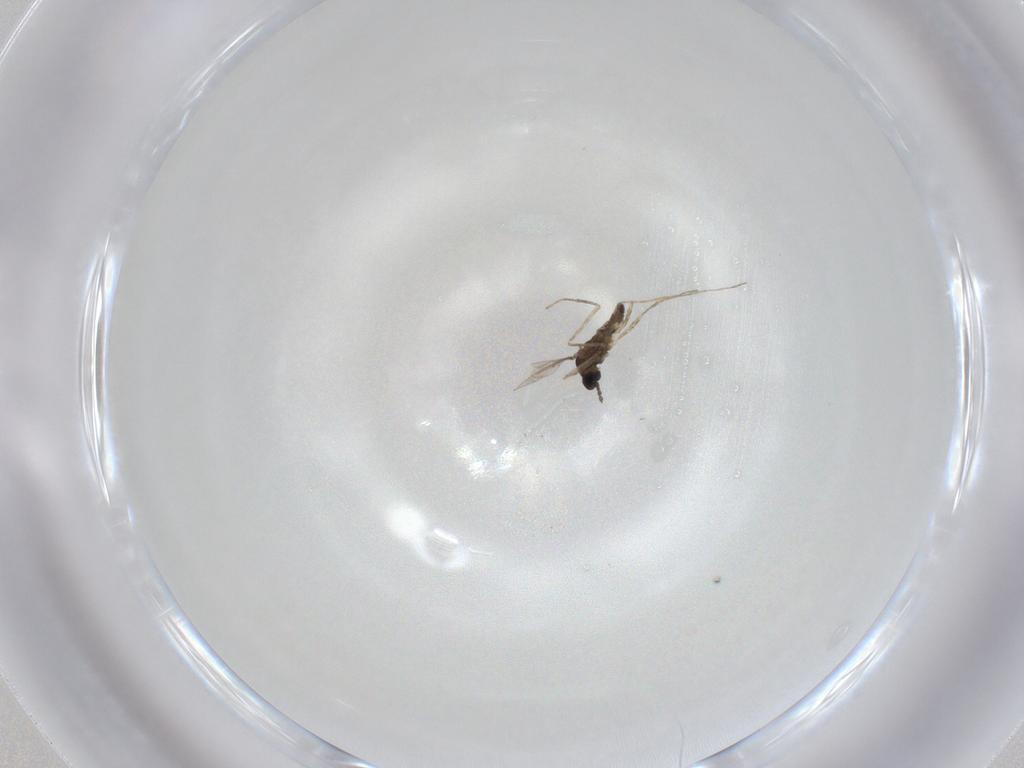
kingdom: Animalia
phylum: Arthropoda
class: Insecta
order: Diptera
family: Cecidomyiidae
